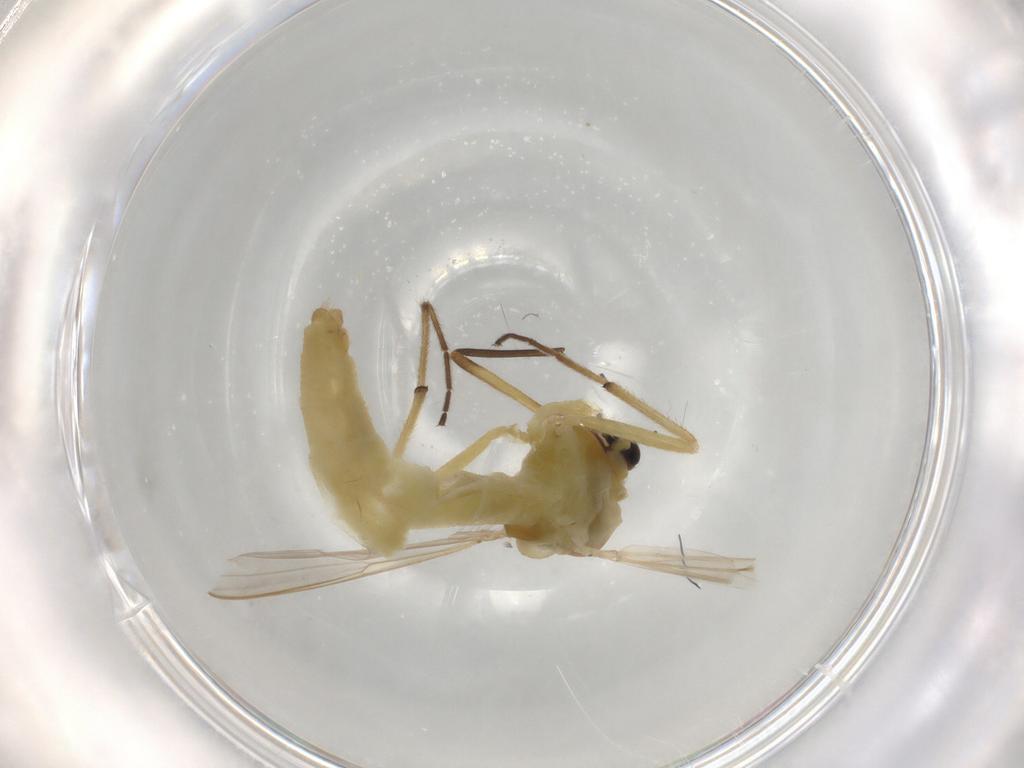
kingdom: Animalia
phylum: Arthropoda
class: Insecta
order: Diptera
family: Chironomidae
